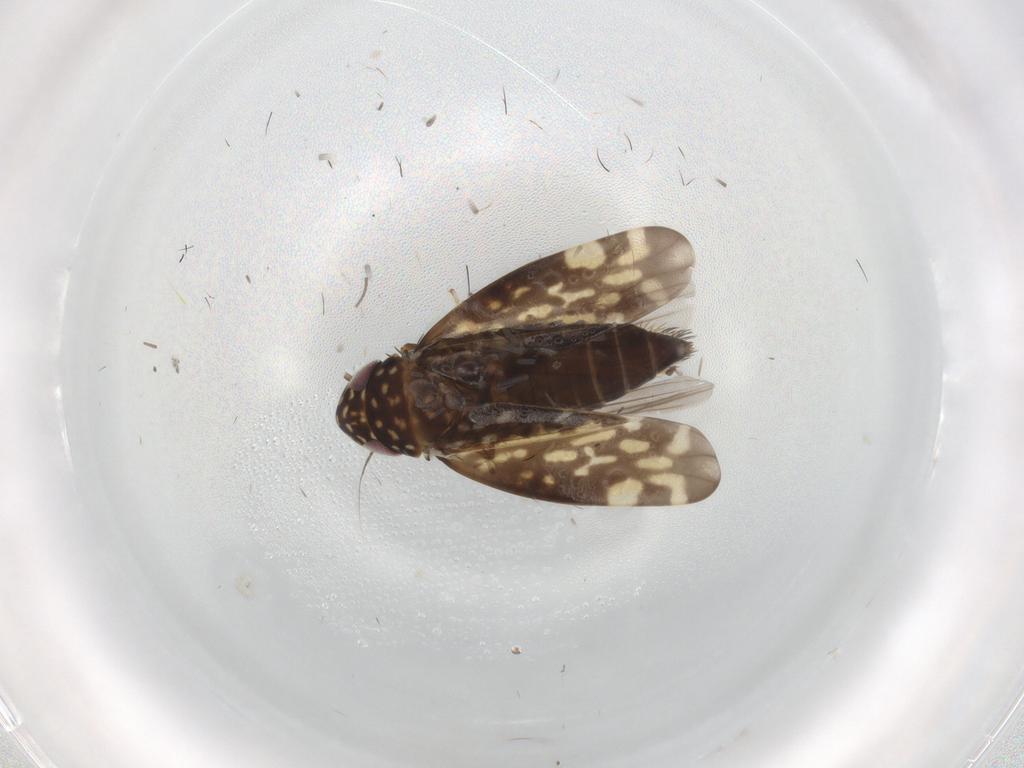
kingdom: Animalia
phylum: Arthropoda
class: Insecta
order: Hemiptera
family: Cicadellidae
